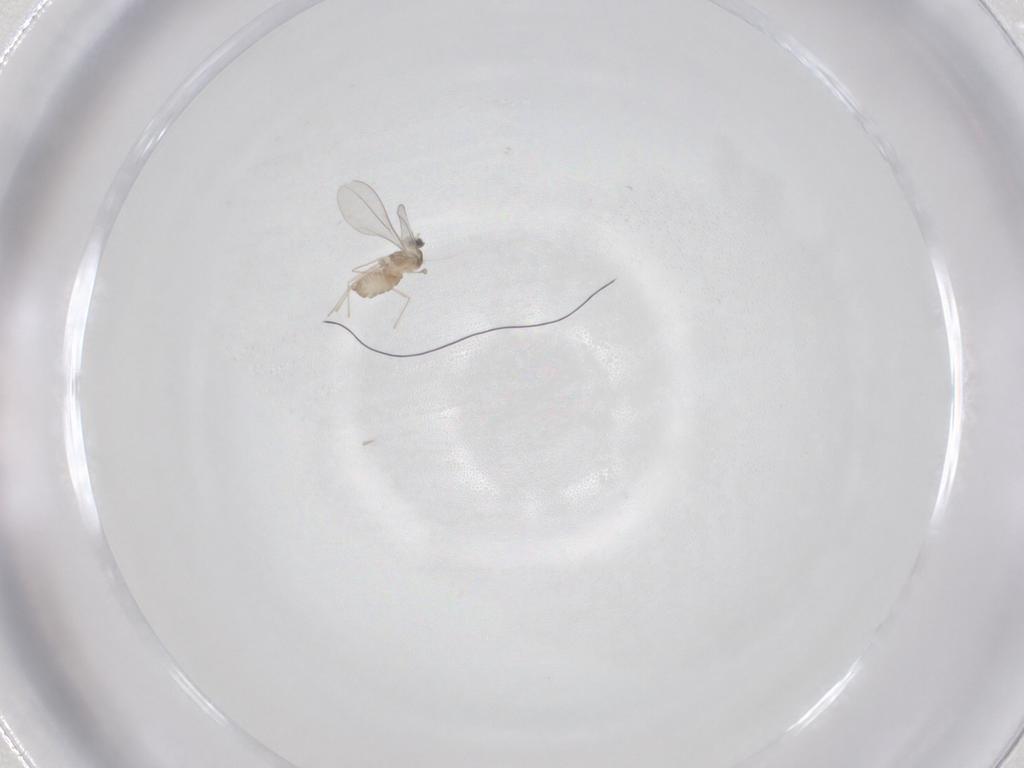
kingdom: Animalia
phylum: Arthropoda
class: Insecta
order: Diptera
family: Cecidomyiidae
